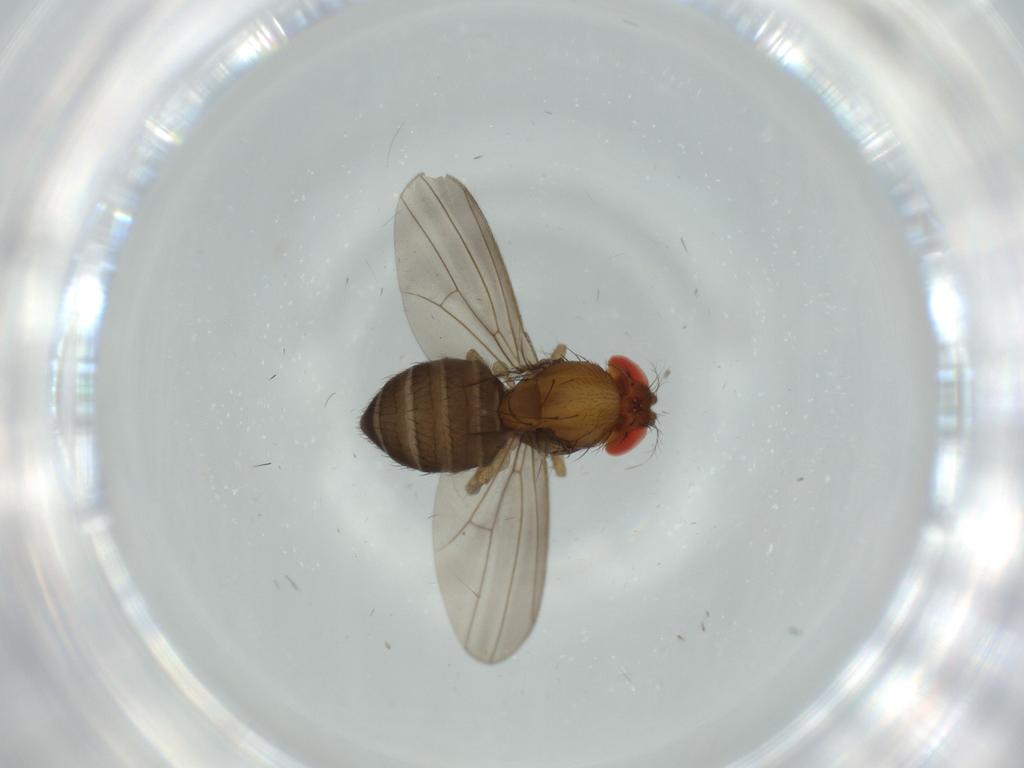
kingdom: Animalia
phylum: Arthropoda
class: Insecta
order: Diptera
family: Drosophilidae
